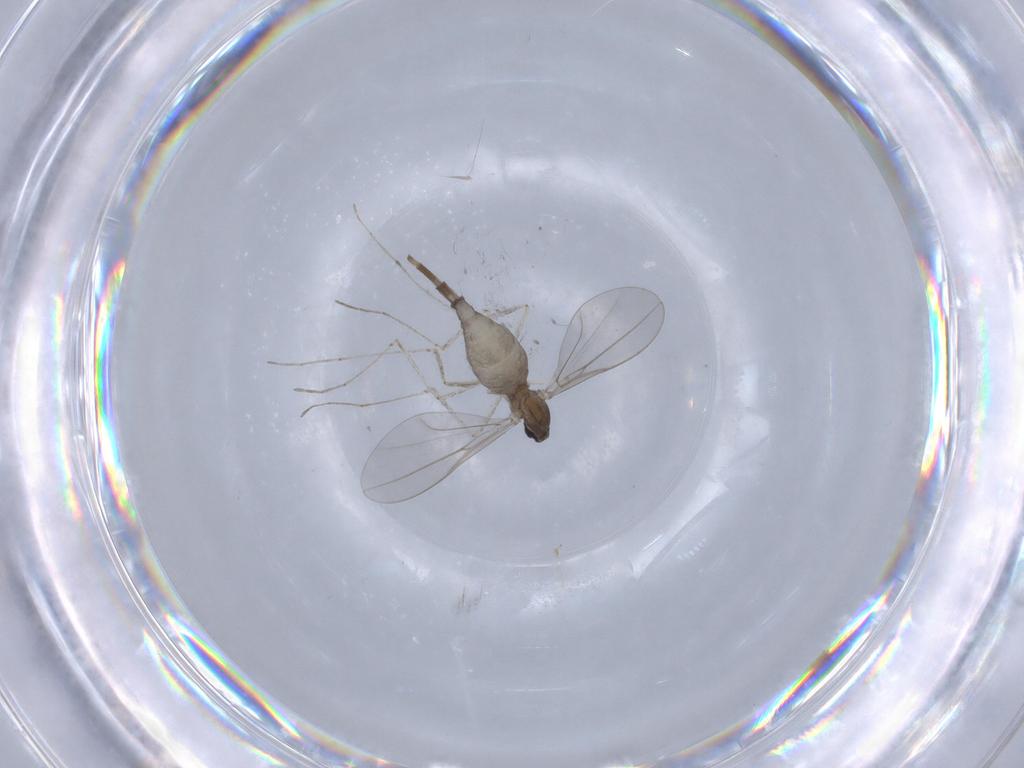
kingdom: Animalia
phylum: Arthropoda
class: Insecta
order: Diptera
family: Cecidomyiidae
